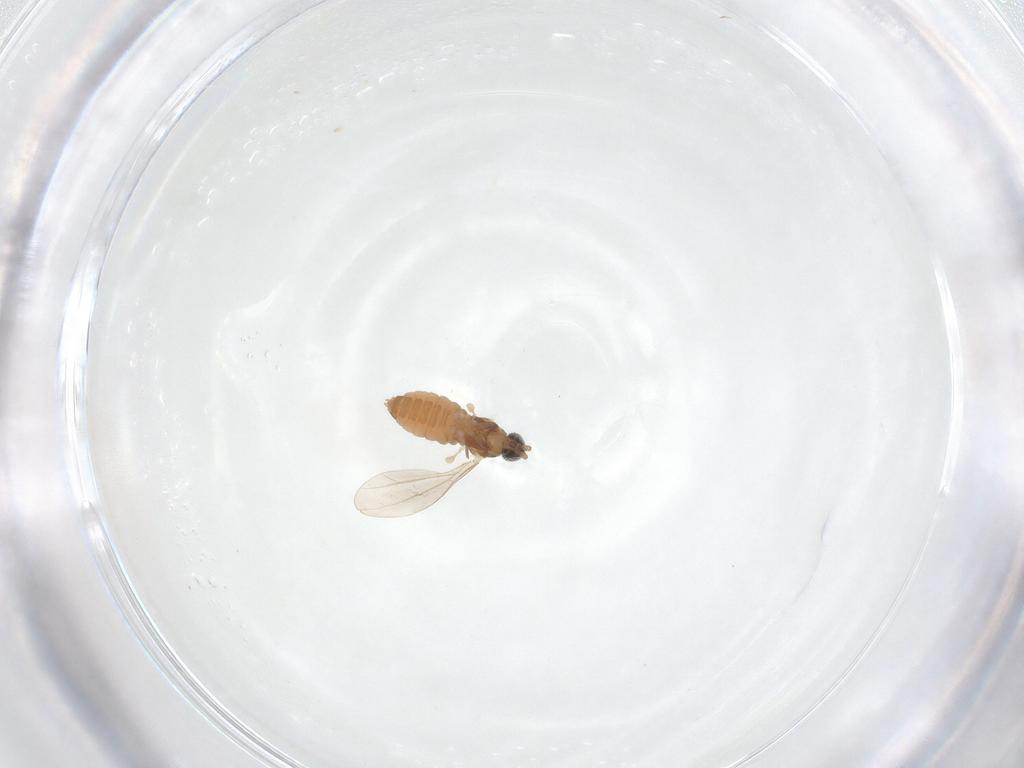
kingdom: Animalia
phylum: Arthropoda
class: Insecta
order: Diptera
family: Cecidomyiidae
